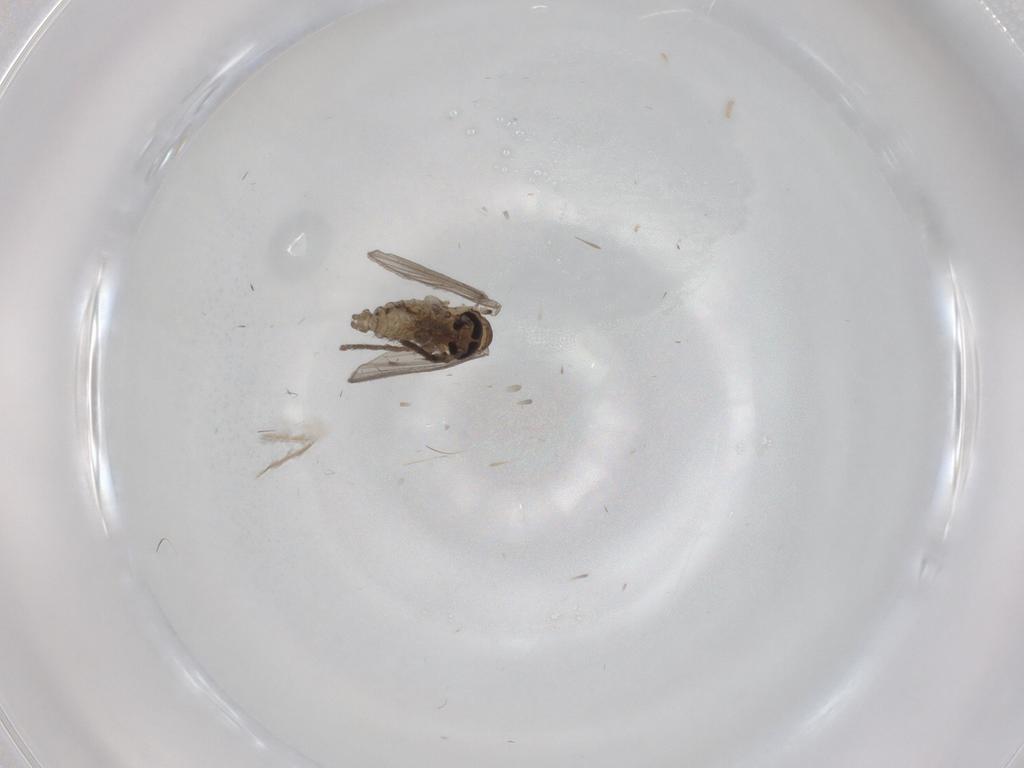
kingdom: Animalia
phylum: Arthropoda
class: Insecta
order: Diptera
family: Psychodidae
